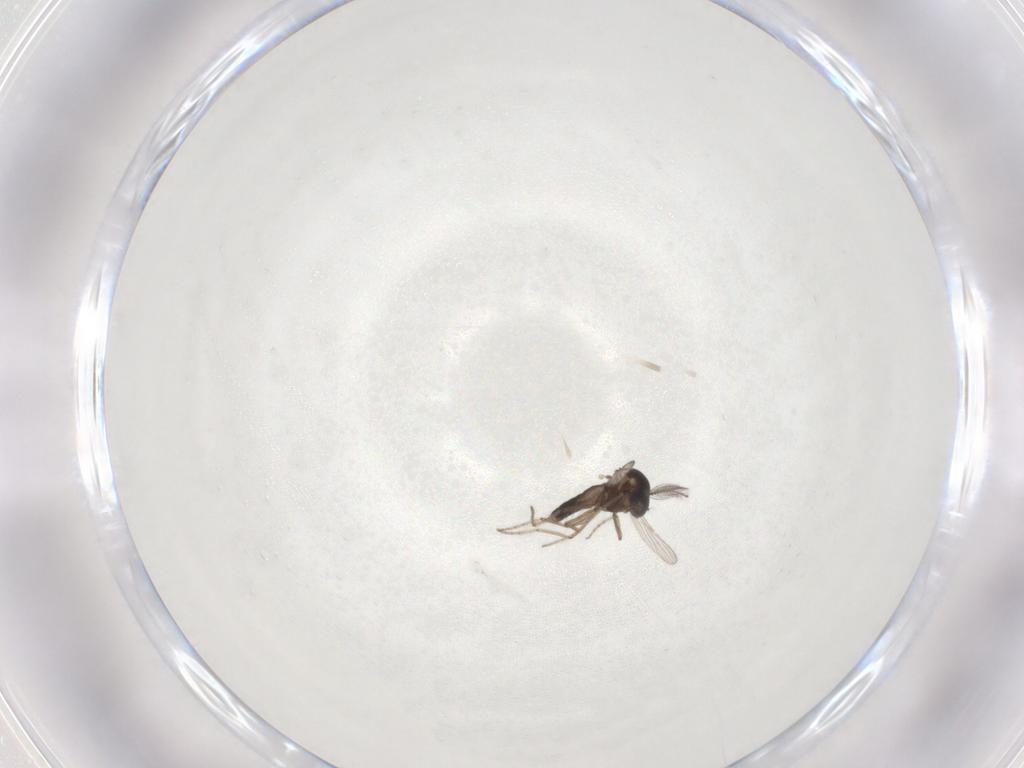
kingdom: Animalia
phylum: Arthropoda
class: Insecta
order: Diptera
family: Ceratopogonidae
